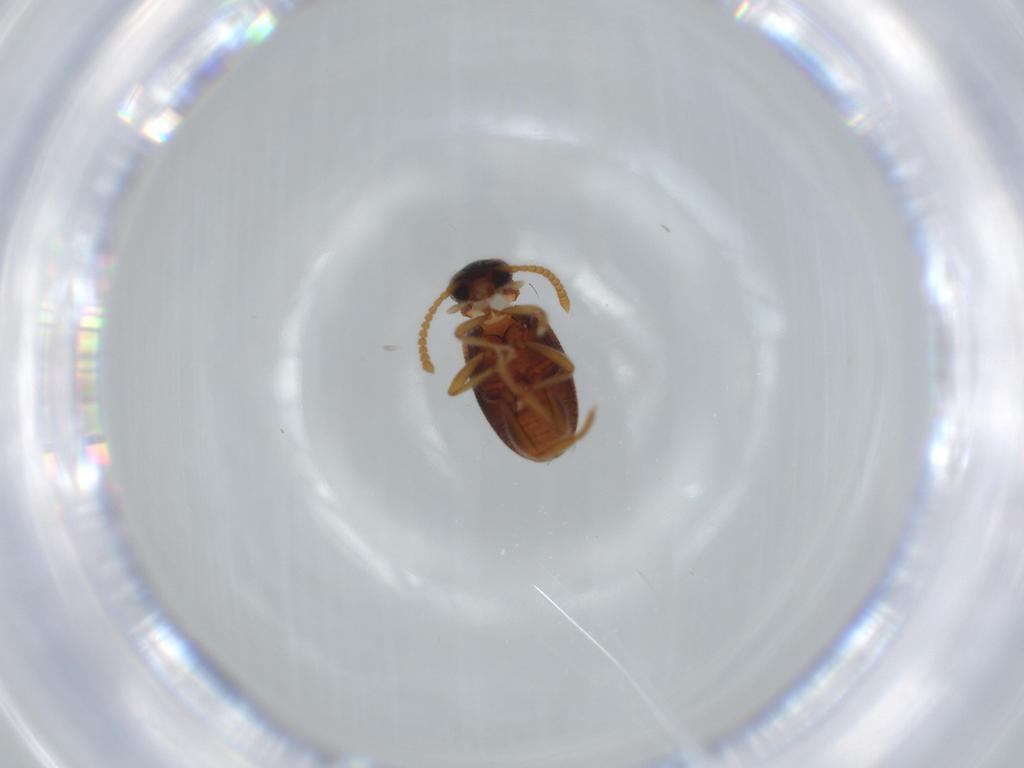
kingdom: Animalia
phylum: Arthropoda
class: Insecta
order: Coleoptera
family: Aderidae
